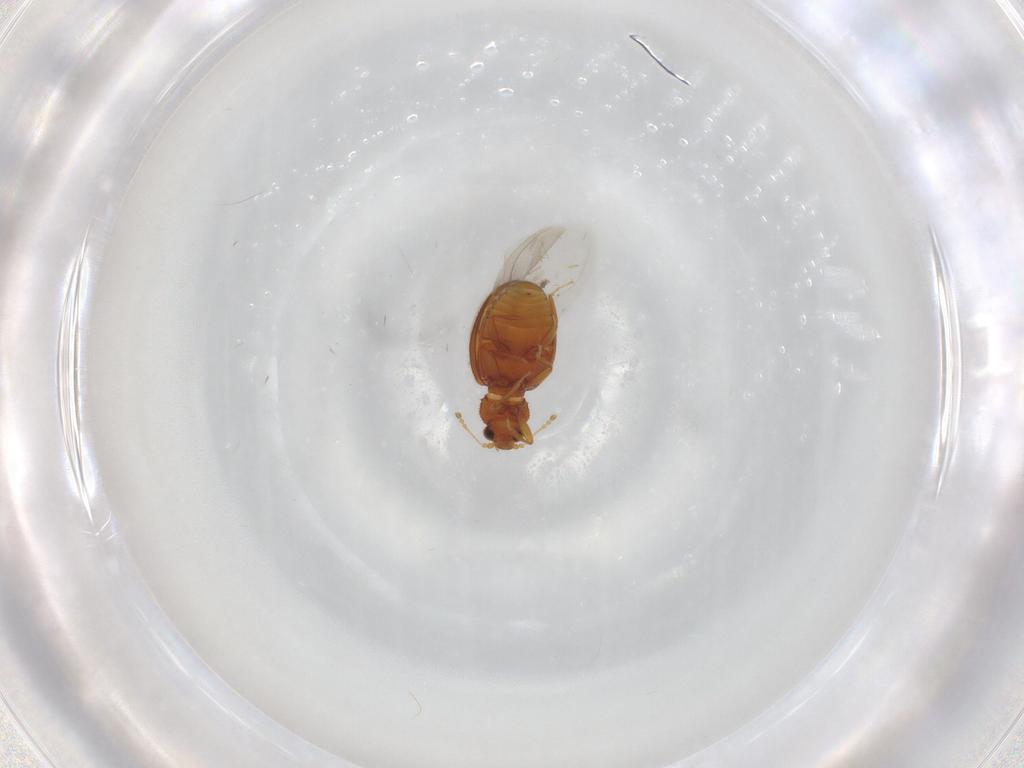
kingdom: Animalia
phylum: Arthropoda
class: Insecta
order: Coleoptera
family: Latridiidae
